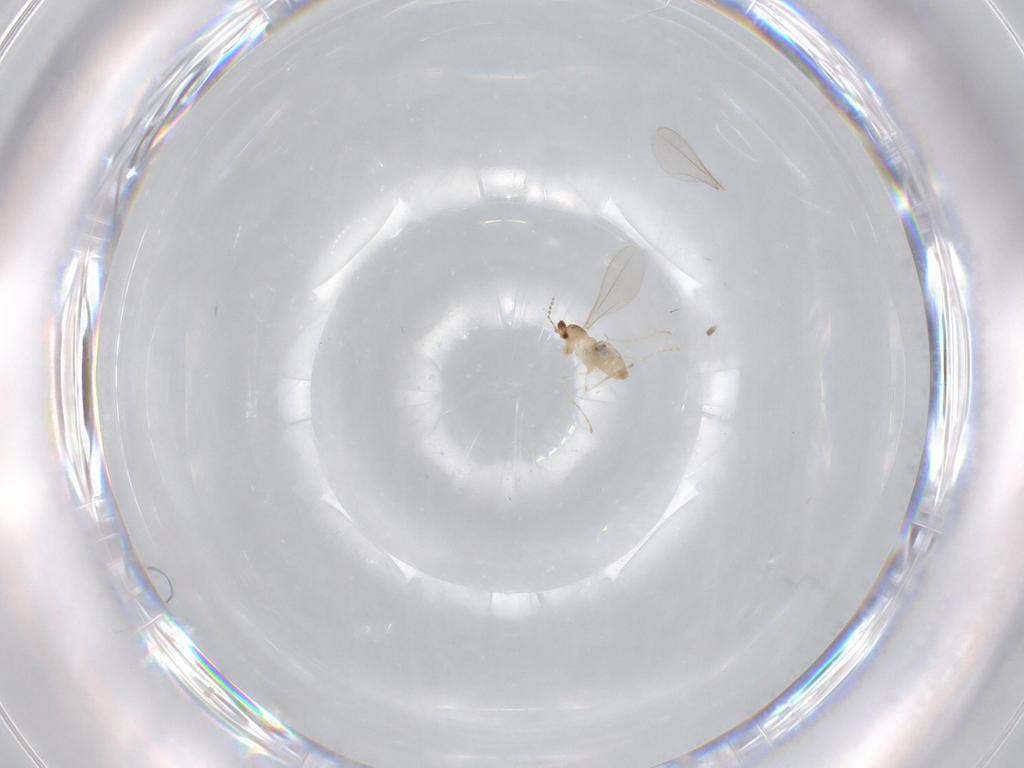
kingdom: Animalia
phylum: Arthropoda
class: Insecta
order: Diptera
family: Cecidomyiidae
